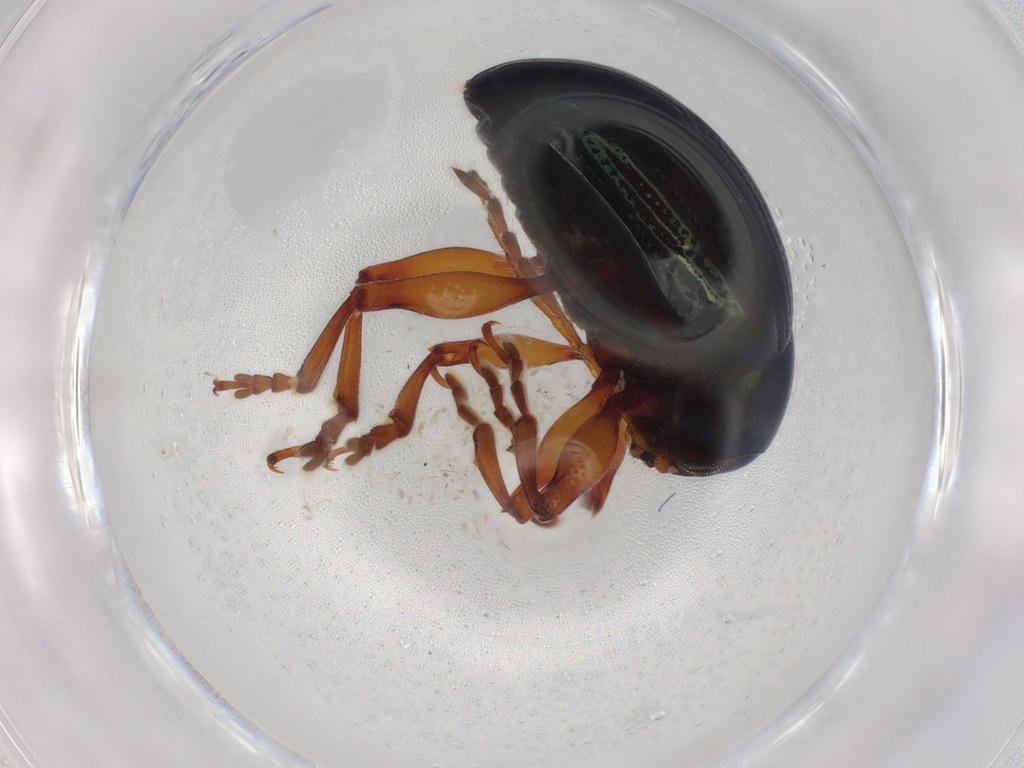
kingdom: Animalia
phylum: Arthropoda
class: Insecta
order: Coleoptera
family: Chrysomelidae
